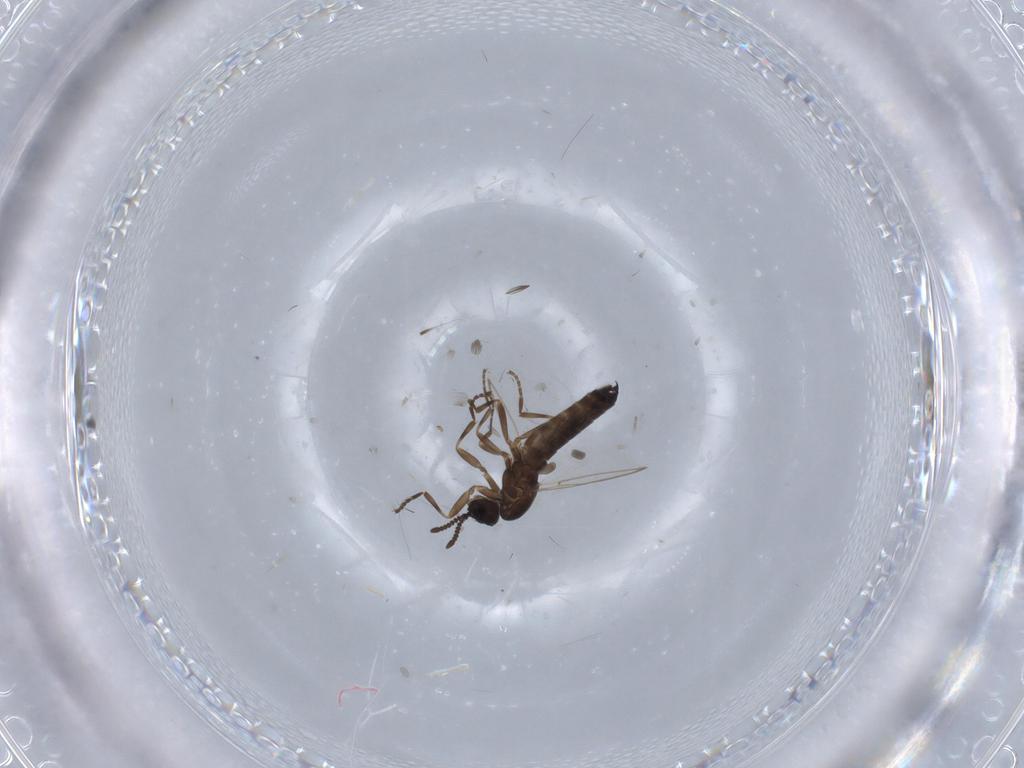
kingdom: Animalia
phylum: Arthropoda
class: Insecta
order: Diptera
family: Scatopsidae
